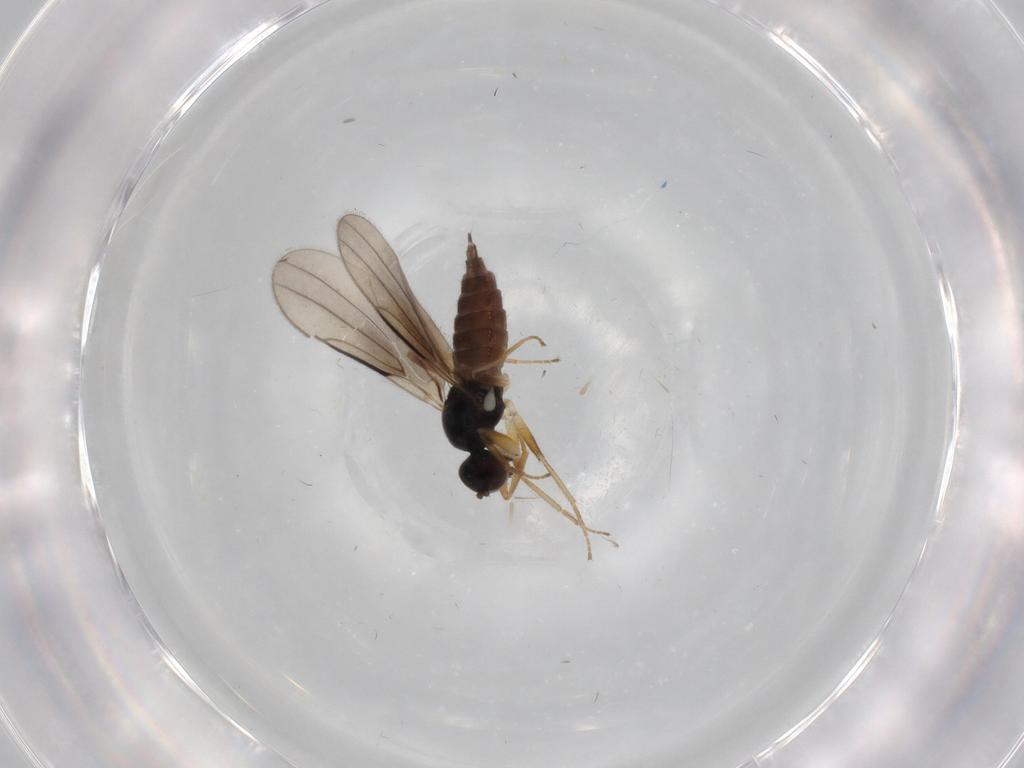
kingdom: Animalia
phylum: Arthropoda
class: Insecta
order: Diptera
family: Hybotidae
